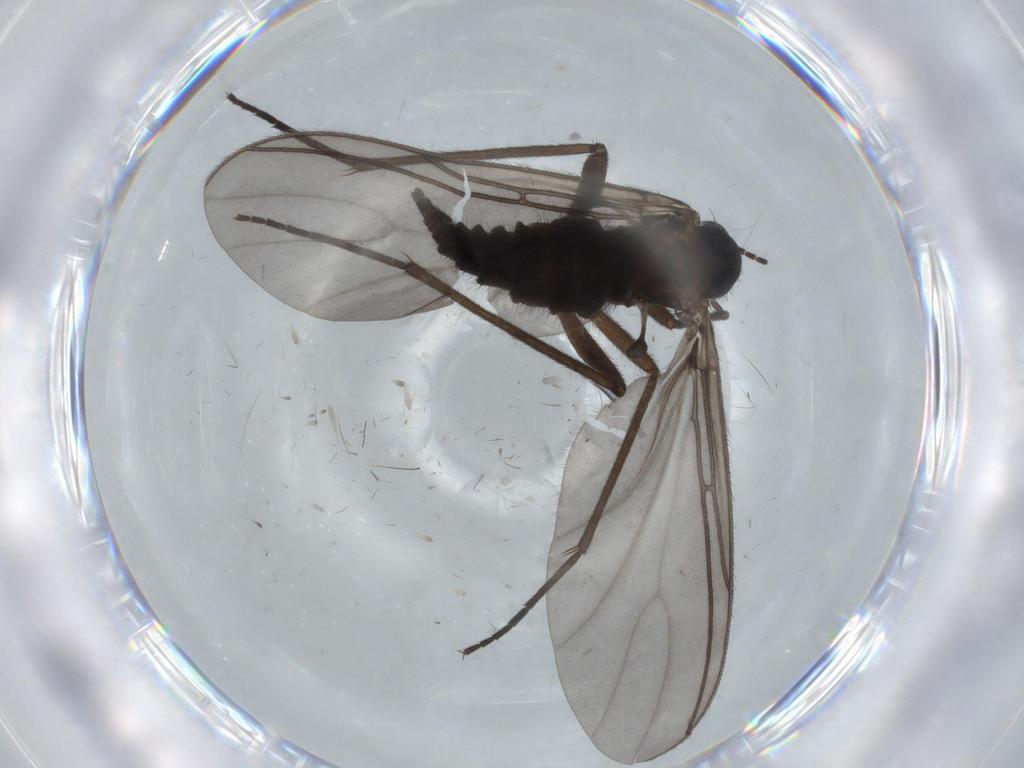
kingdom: Animalia
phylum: Arthropoda
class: Insecta
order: Diptera
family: Sciaridae
